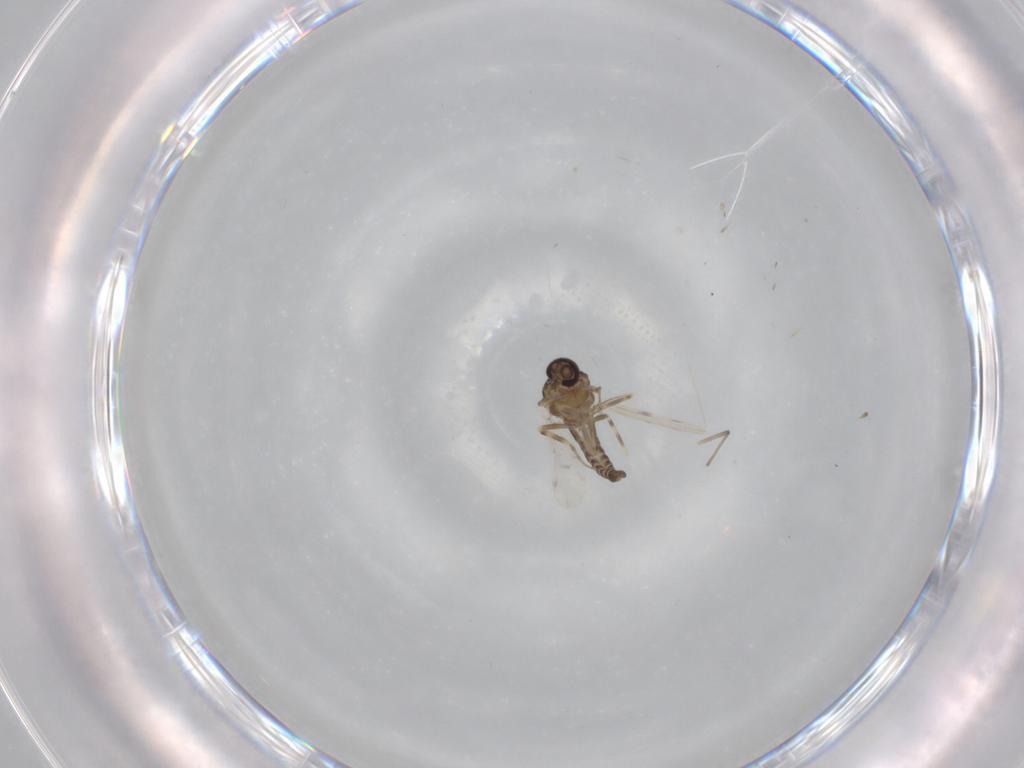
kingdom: Animalia
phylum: Arthropoda
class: Insecta
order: Diptera
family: Ceratopogonidae
